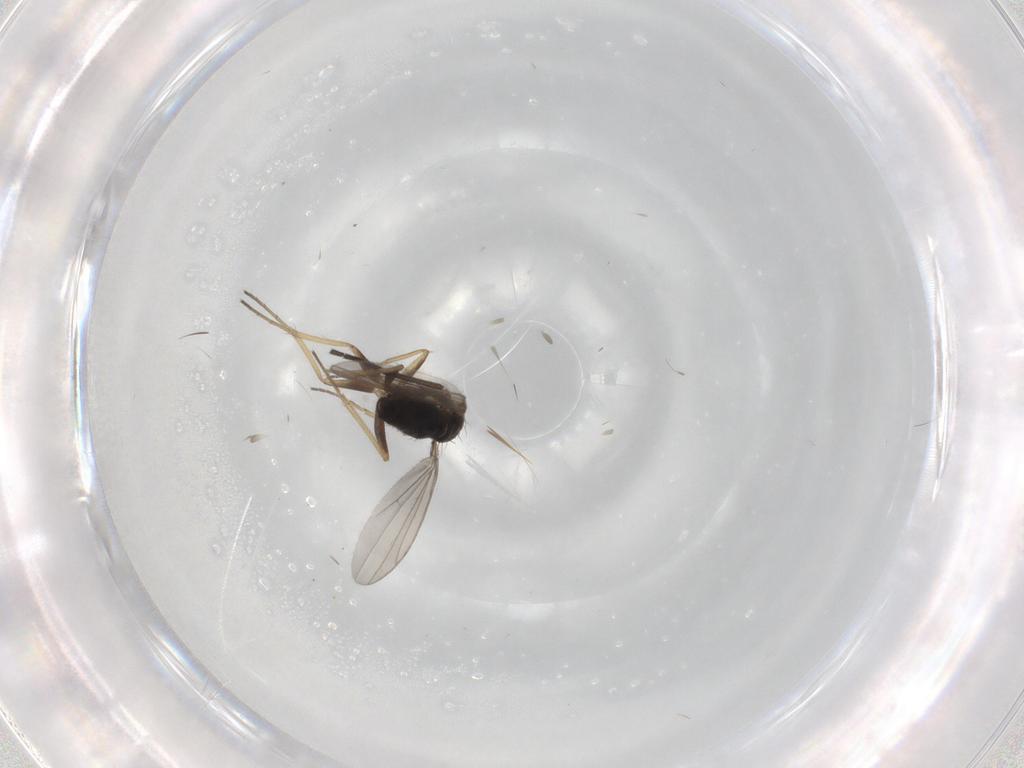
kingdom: Animalia
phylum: Arthropoda
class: Insecta
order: Diptera
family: Dolichopodidae
